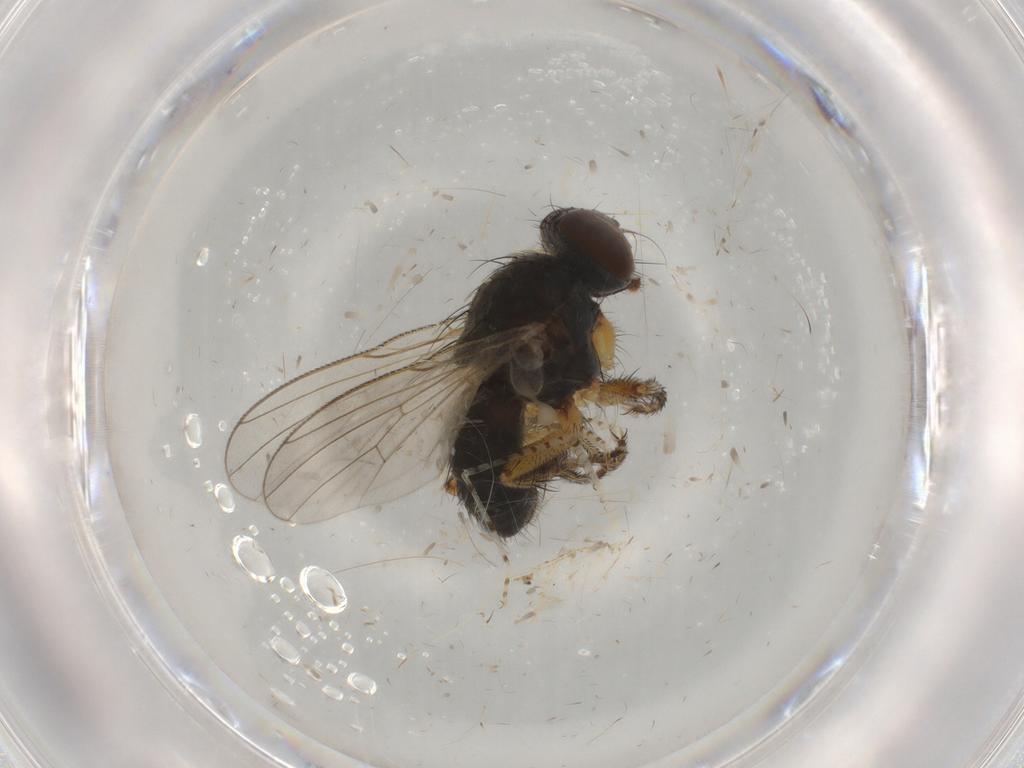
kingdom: Animalia
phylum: Arthropoda
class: Insecta
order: Diptera
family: Muscidae
